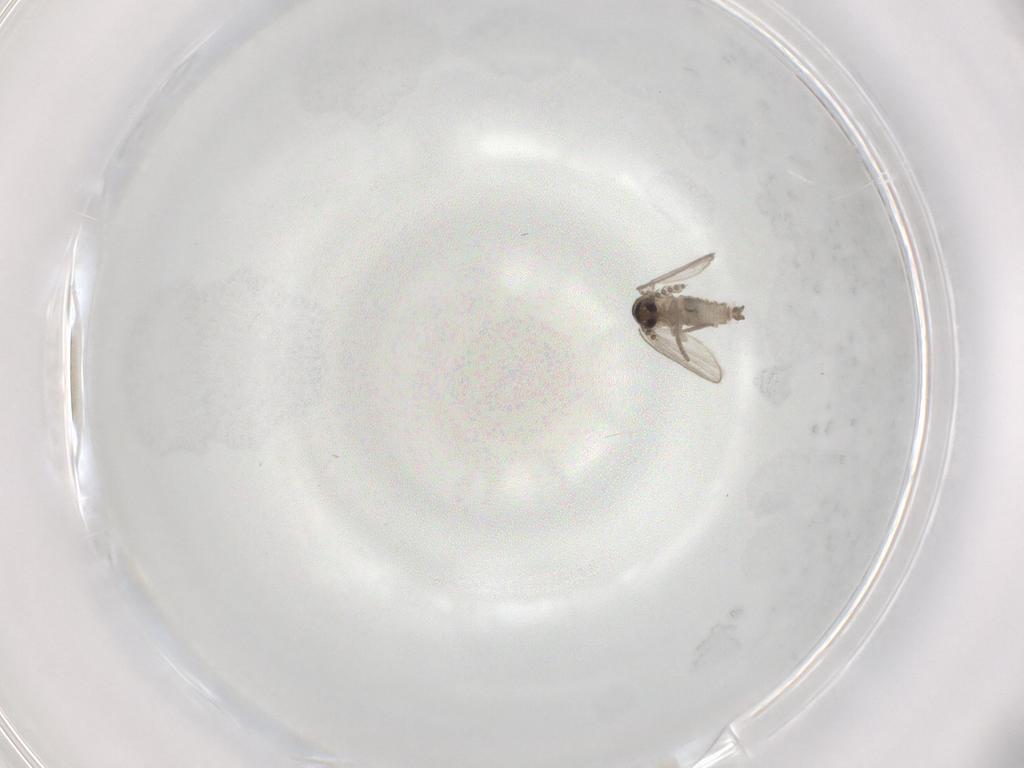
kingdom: Animalia
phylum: Arthropoda
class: Insecta
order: Diptera
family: Psychodidae
